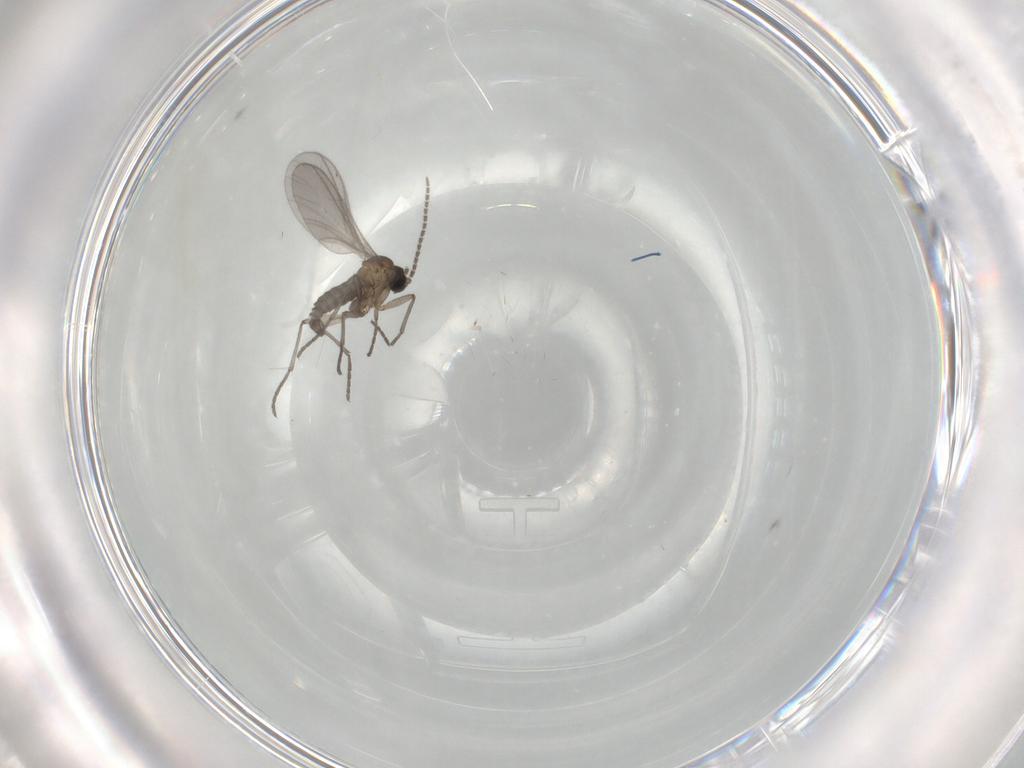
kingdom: Animalia
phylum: Arthropoda
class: Insecta
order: Diptera
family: Sciaridae
